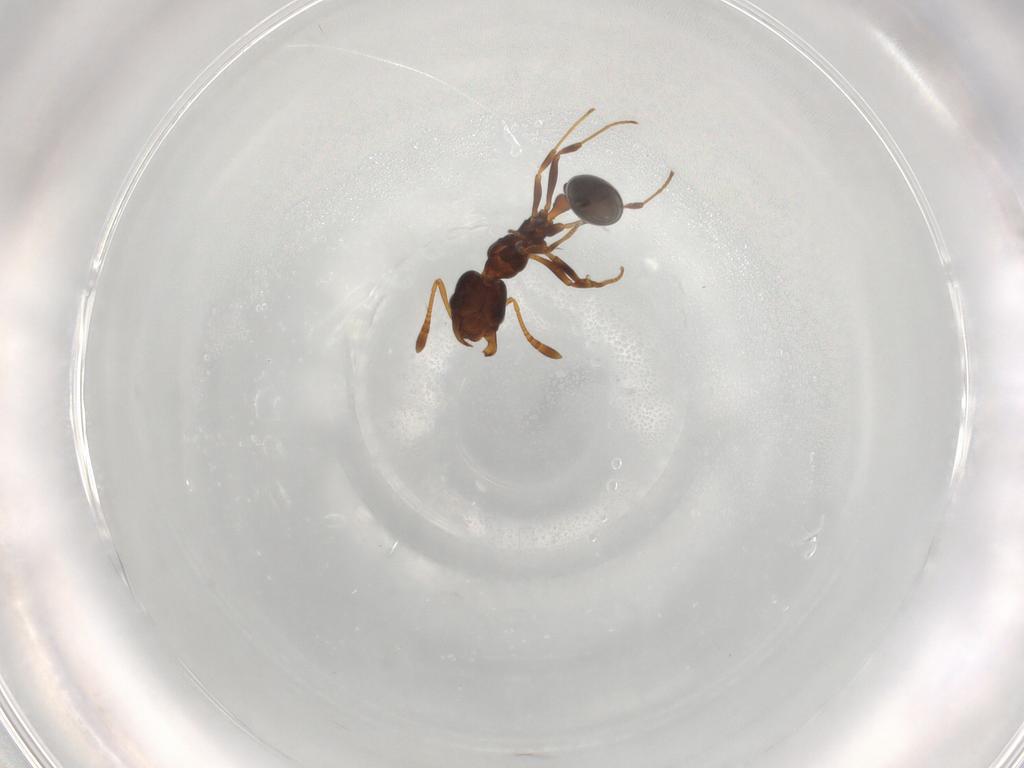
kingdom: Animalia
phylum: Arthropoda
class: Insecta
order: Hymenoptera
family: Formicidae
